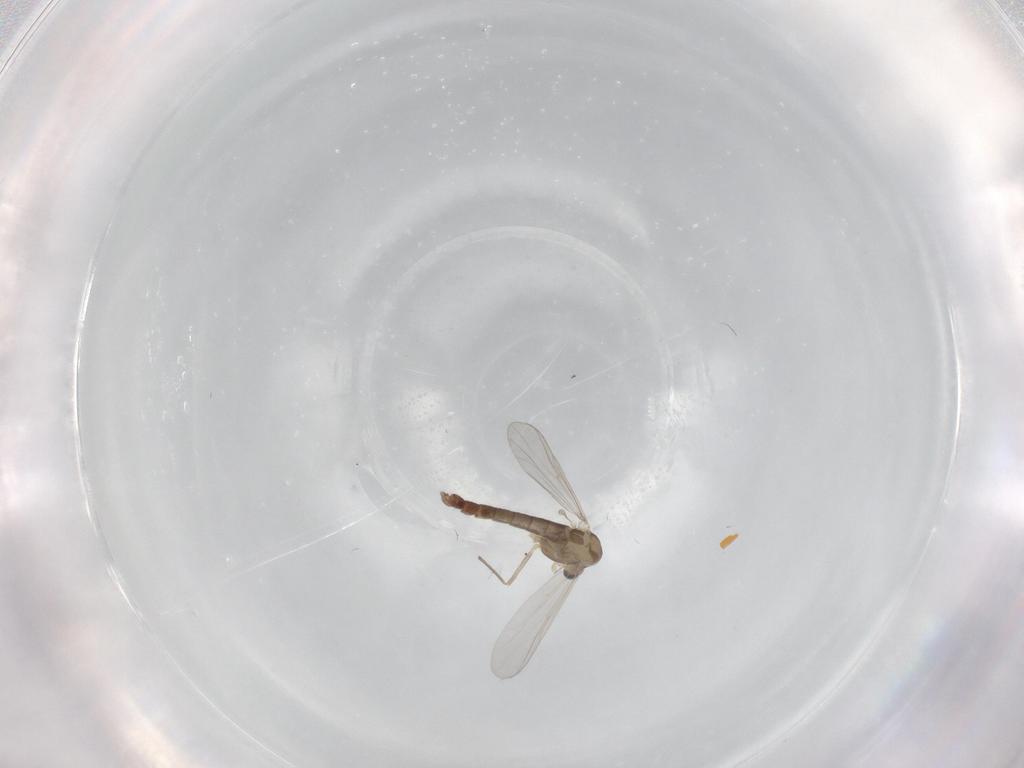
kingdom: Animalia
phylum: Arthropoda
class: Insecta
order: Diptera
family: Chironomidae
